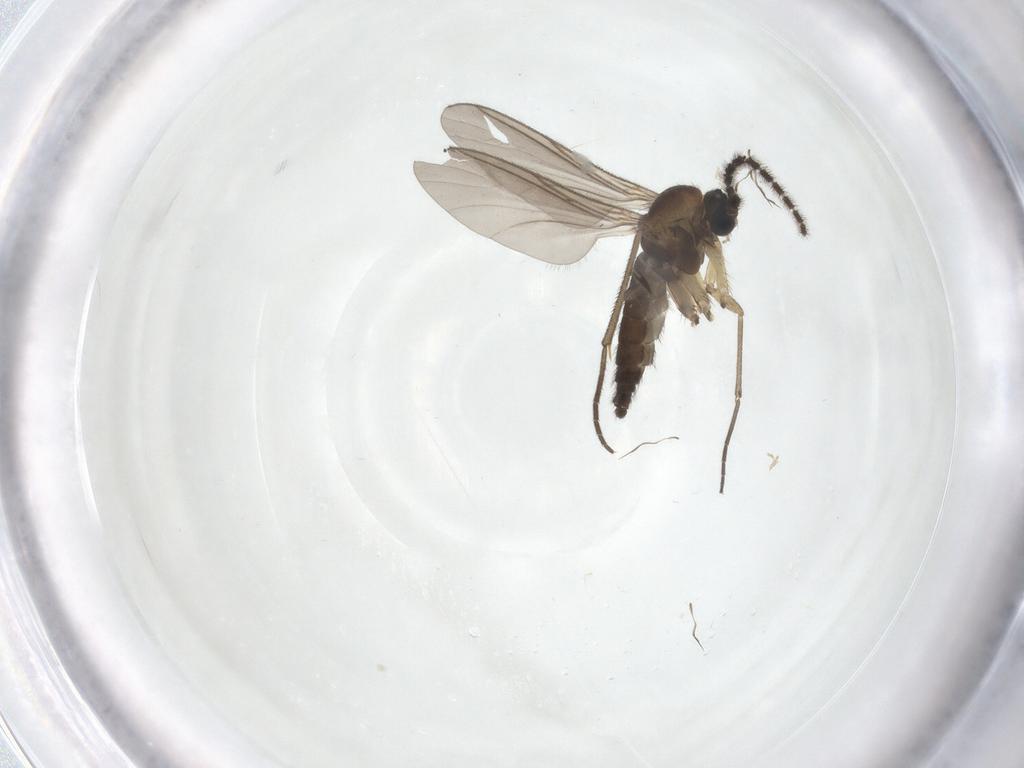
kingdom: Animalia
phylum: Arthropoda
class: Insecta
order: Diptera
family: Sciaridae
